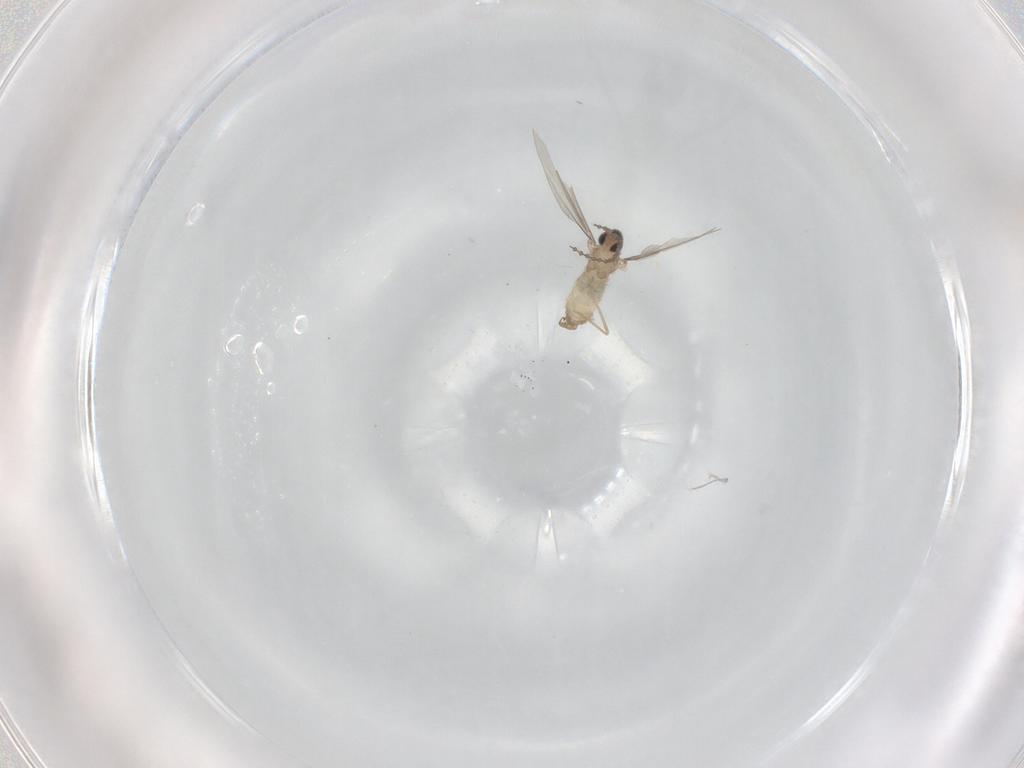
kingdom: Animalia
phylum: Arthropoda
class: Insecta
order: Diptera
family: Cecidomyiidae
